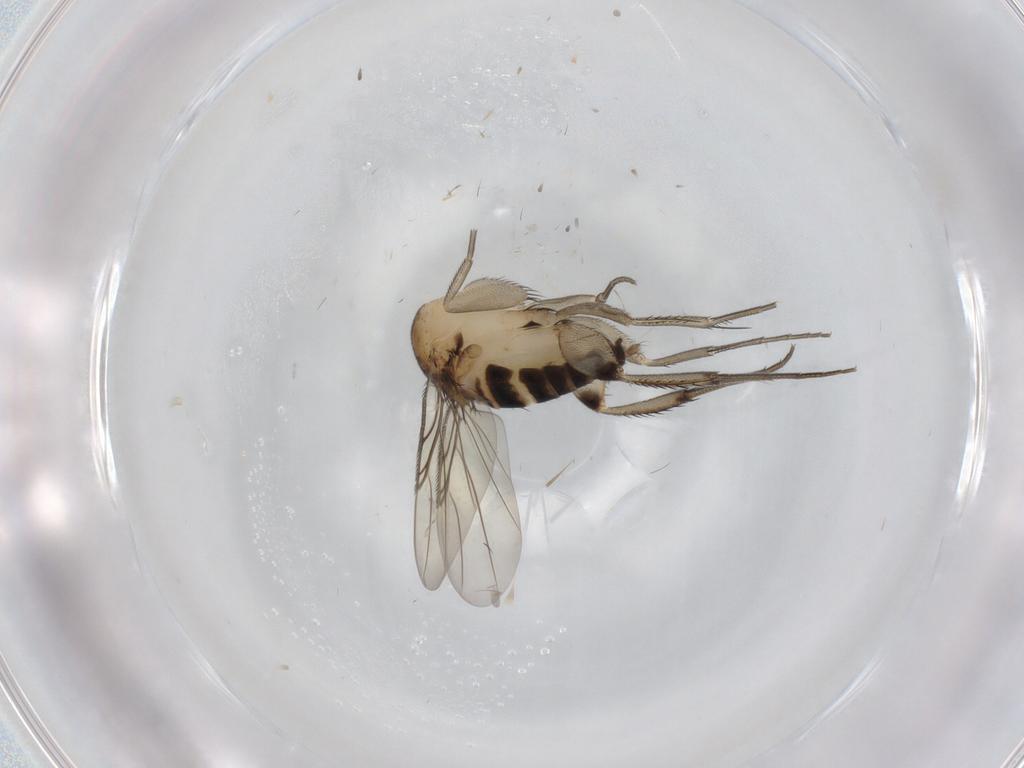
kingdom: Animalia
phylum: Arthropoda
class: Insecta
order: Diptera
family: Phoridae
